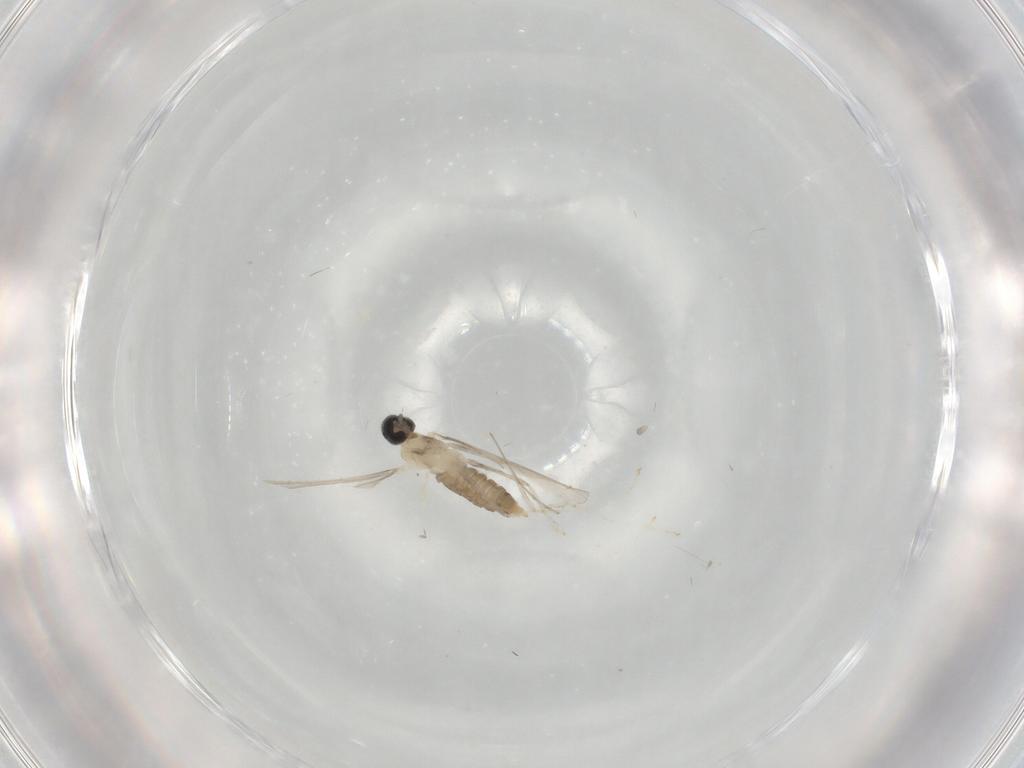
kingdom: Animalia
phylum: Arthropoda
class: Insecta
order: Diptera
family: Cecidomyiidae
